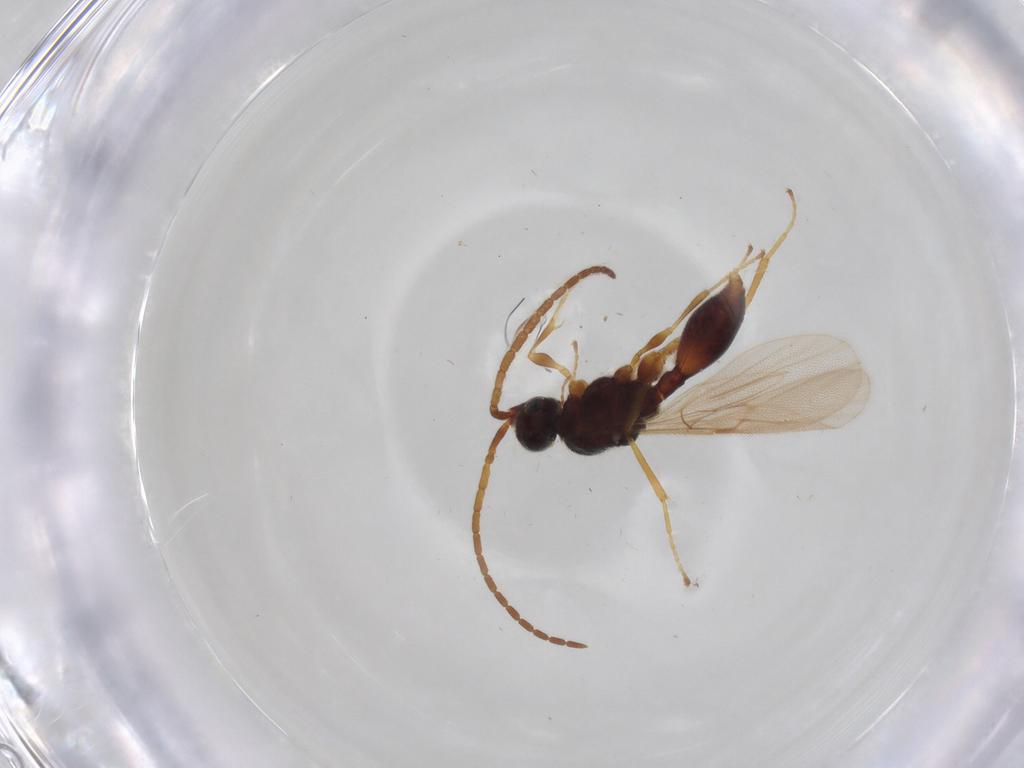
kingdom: Animalia
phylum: Arthropoda
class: Insecta
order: Hymenoptera
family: Diapriidae
